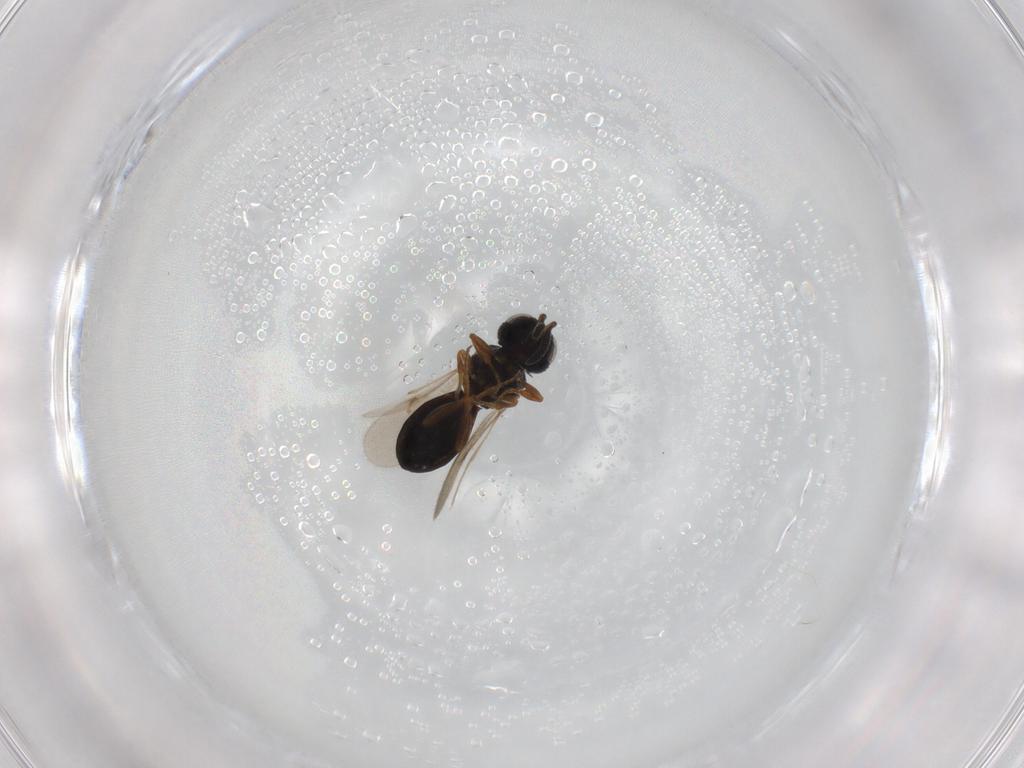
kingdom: Animalia
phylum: Arthropoda
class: Insecta
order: Hymenoptera
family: Scelionidae
